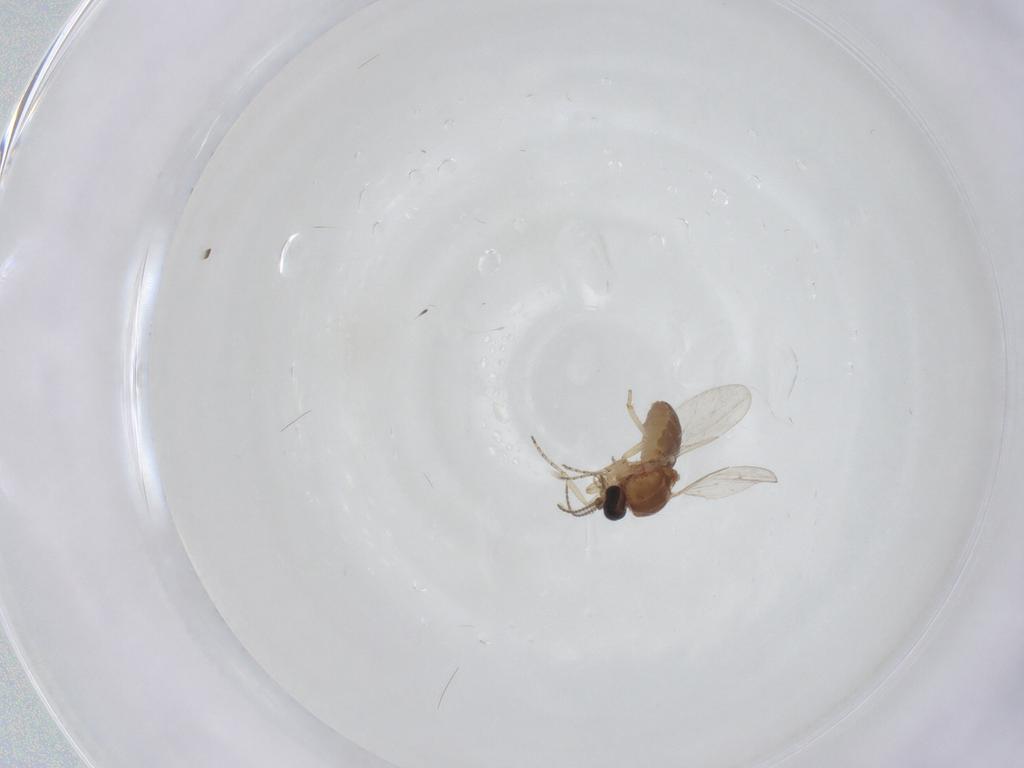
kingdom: Animalia
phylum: Arthropoda
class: Insecta
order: Diptera
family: Ceratopogonidae
